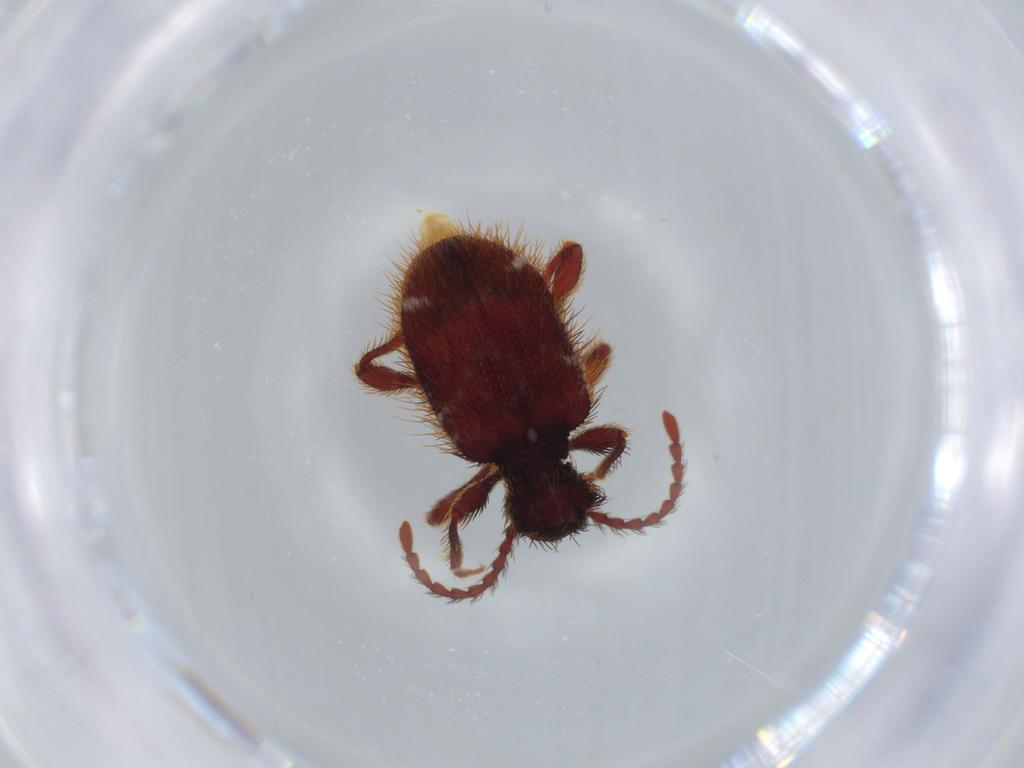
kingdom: Animalia
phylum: Arthropoda
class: Insecta
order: Coleoptera
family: Ptinidae
